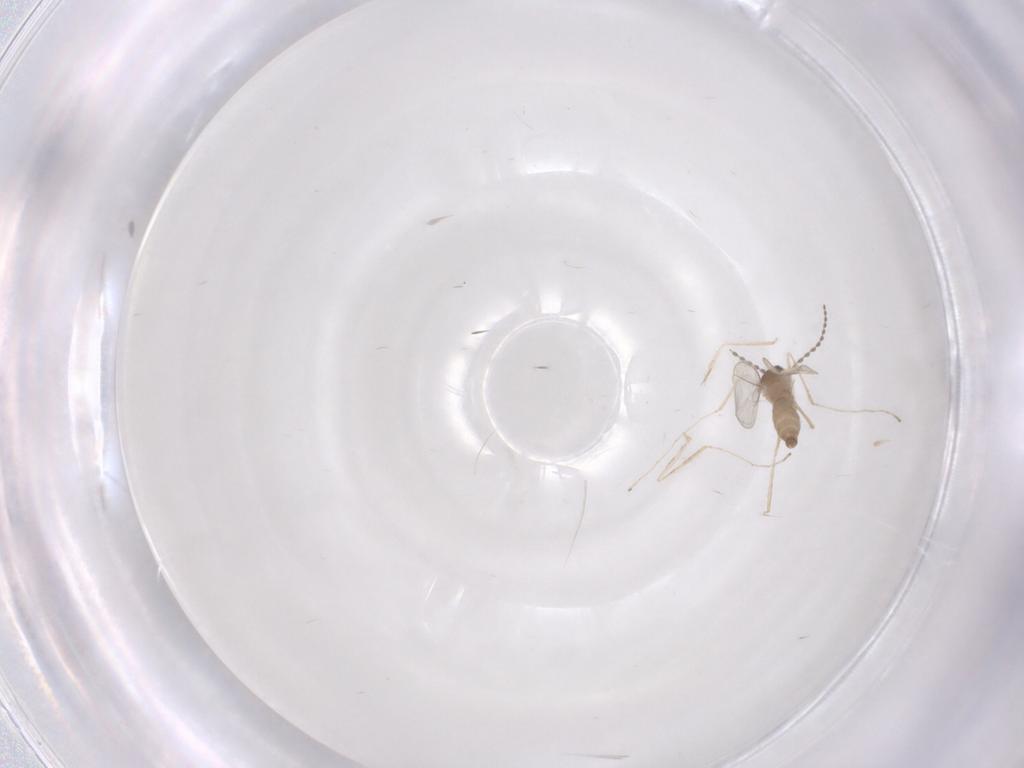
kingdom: Animalia
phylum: Arthropoda
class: Insecta
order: Diptera
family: Cecidomyiidae
